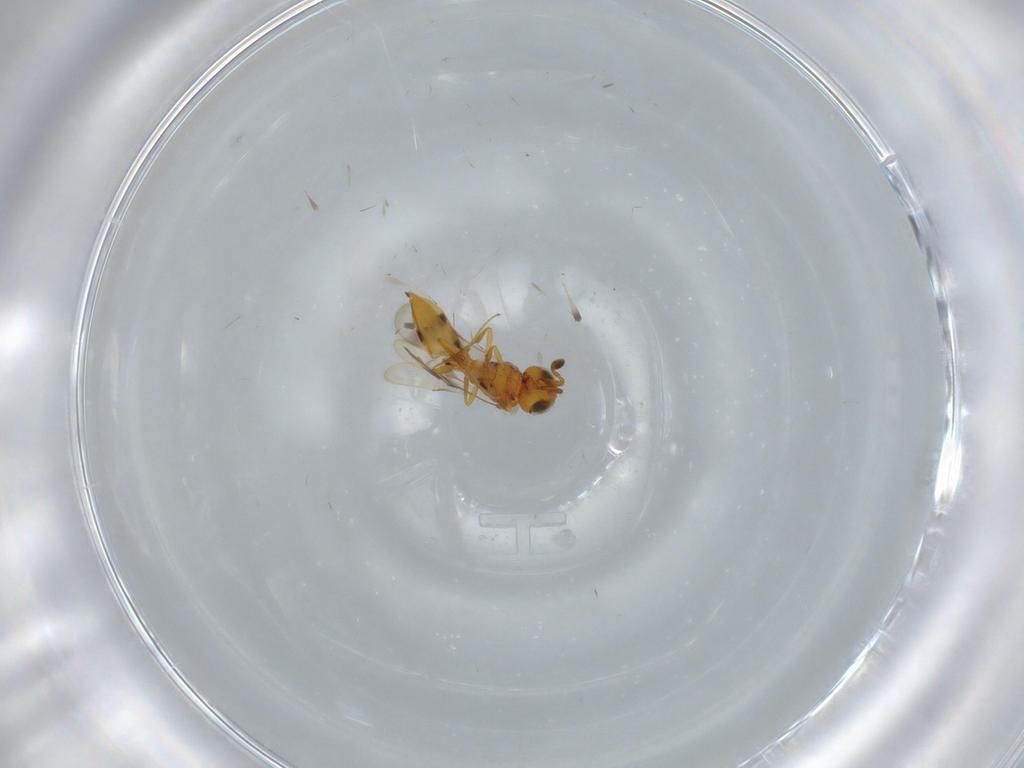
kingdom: Animalia
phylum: Arthropoda
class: Insecta
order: Hymenoptera
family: Scelionidae
